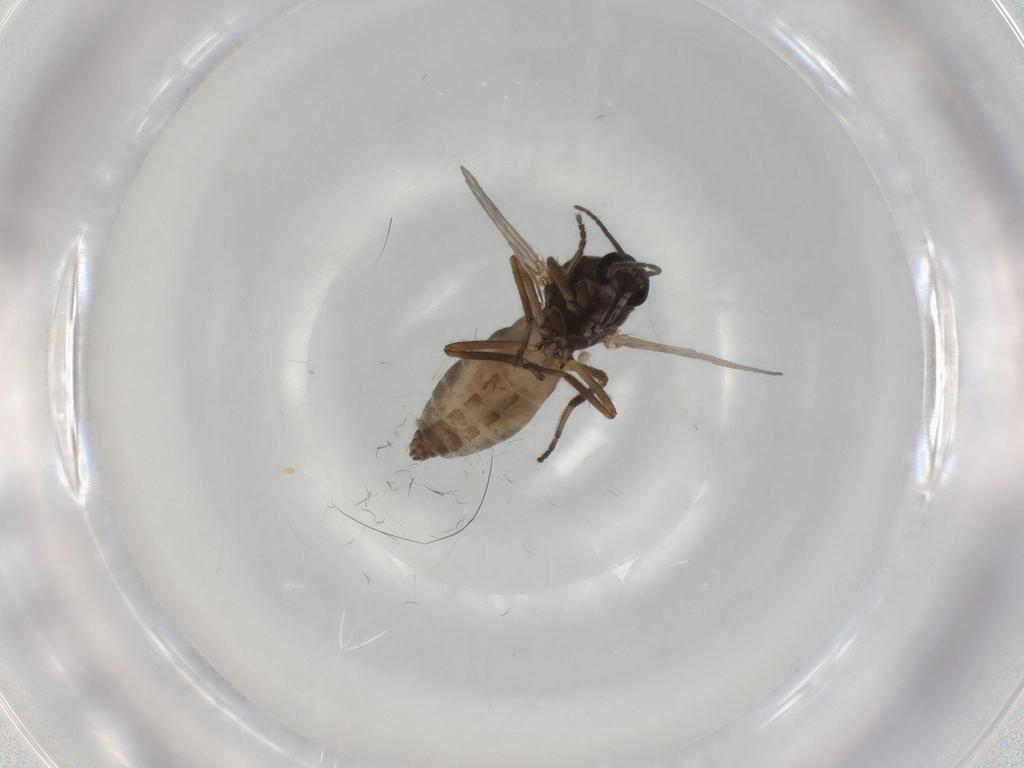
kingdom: Animalia
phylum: Arthropoda
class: Insecta
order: Diptera
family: Ceratopogonidae
